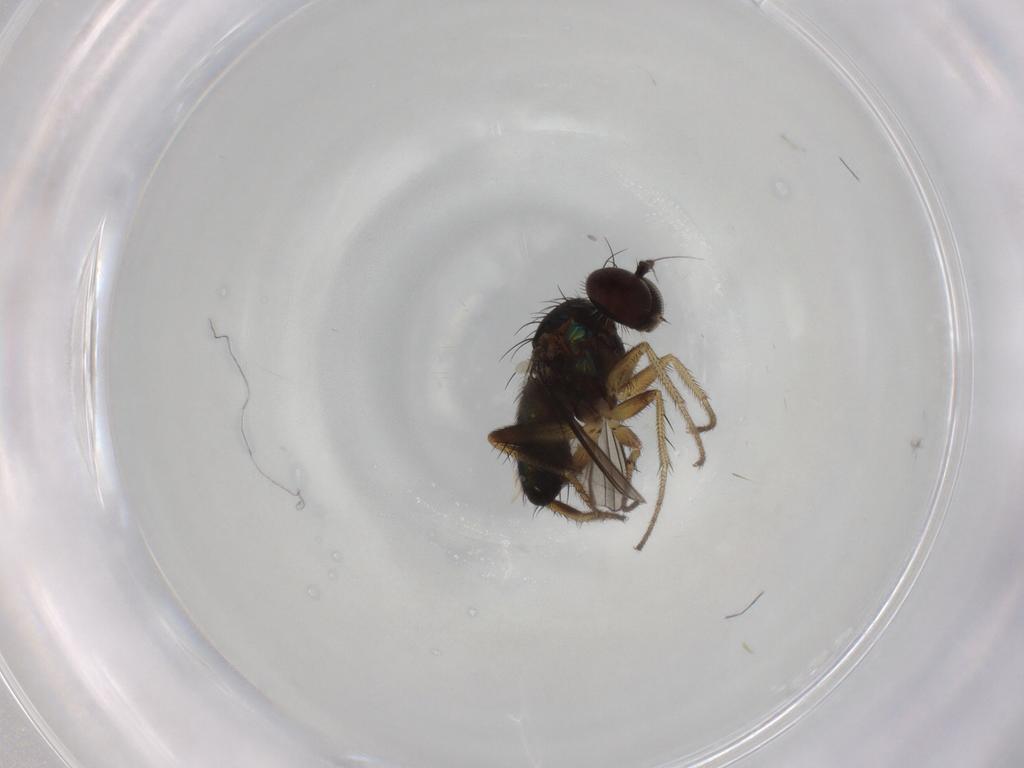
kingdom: Animalia
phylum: Arthropoda
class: Insecta
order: Diptera
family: Dolichopodidae
